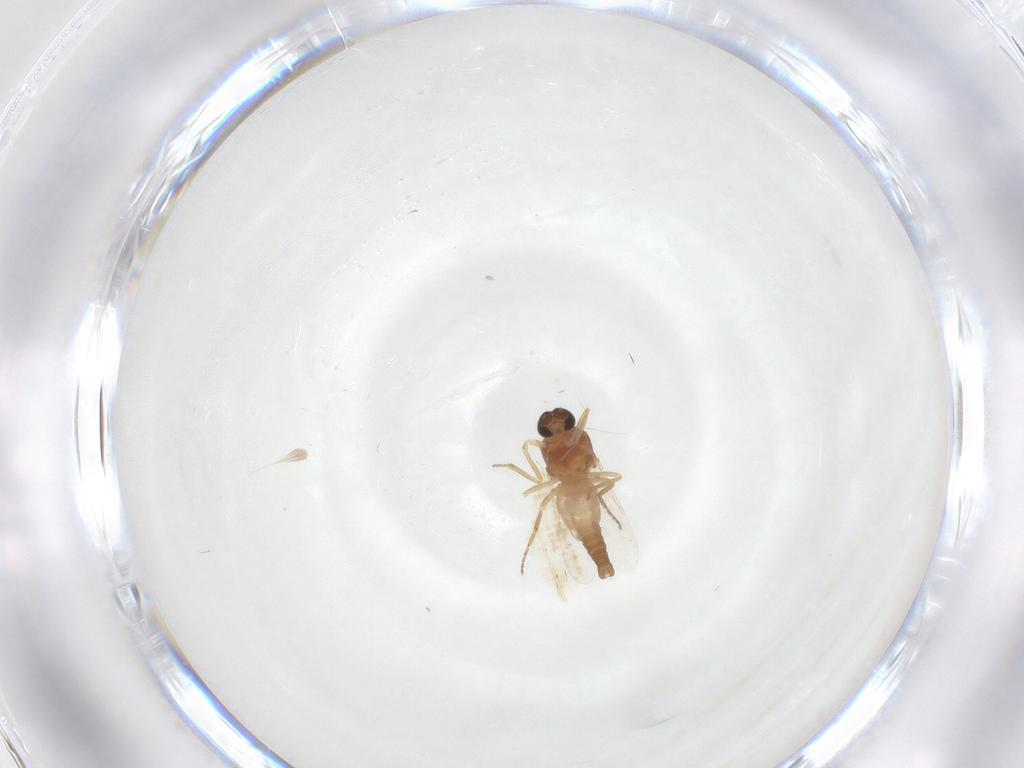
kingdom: Animalia
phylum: Arthropoda
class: Insecta
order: Diptera
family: Ceratopogonidae
